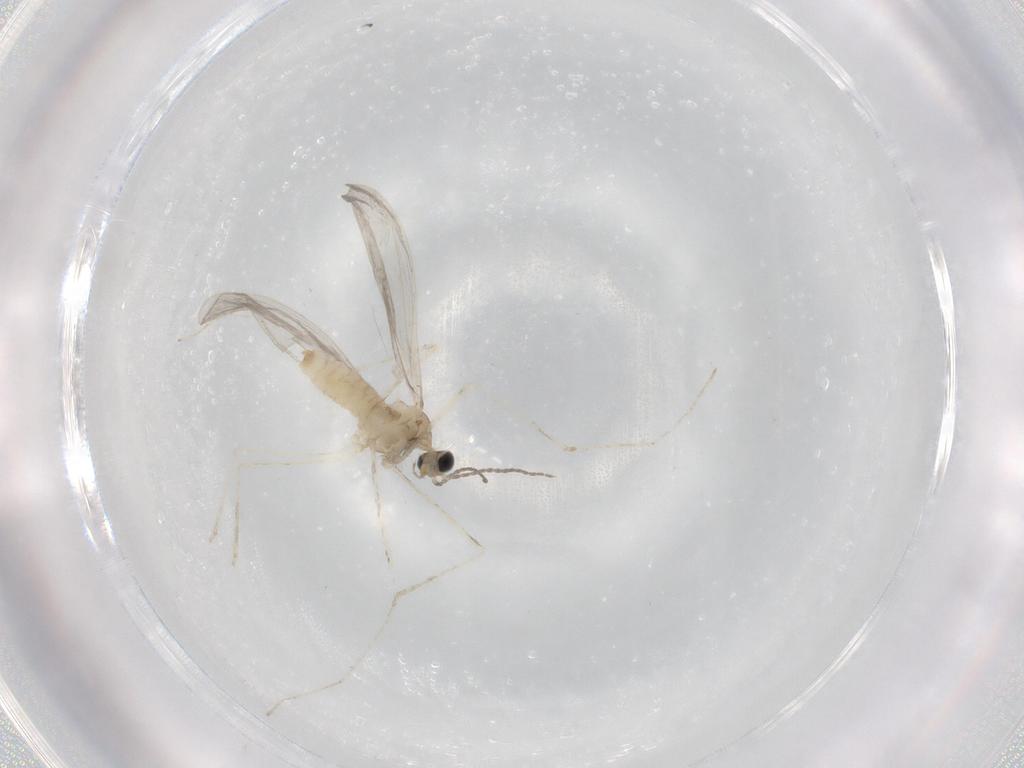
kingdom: Animalia
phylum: Arthropoda
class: Insecta
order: Diptera
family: Cecidomyiidae
